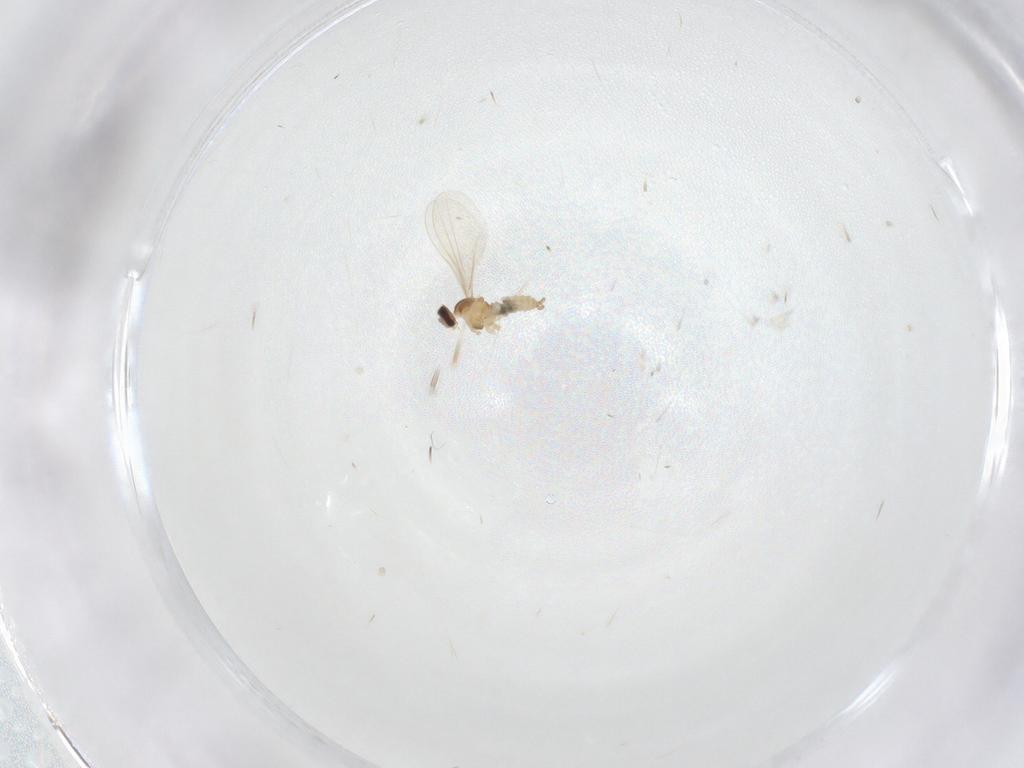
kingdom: Animalia
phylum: Arthropoda
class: Insecta
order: Diptera
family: Cecidomyiidae
